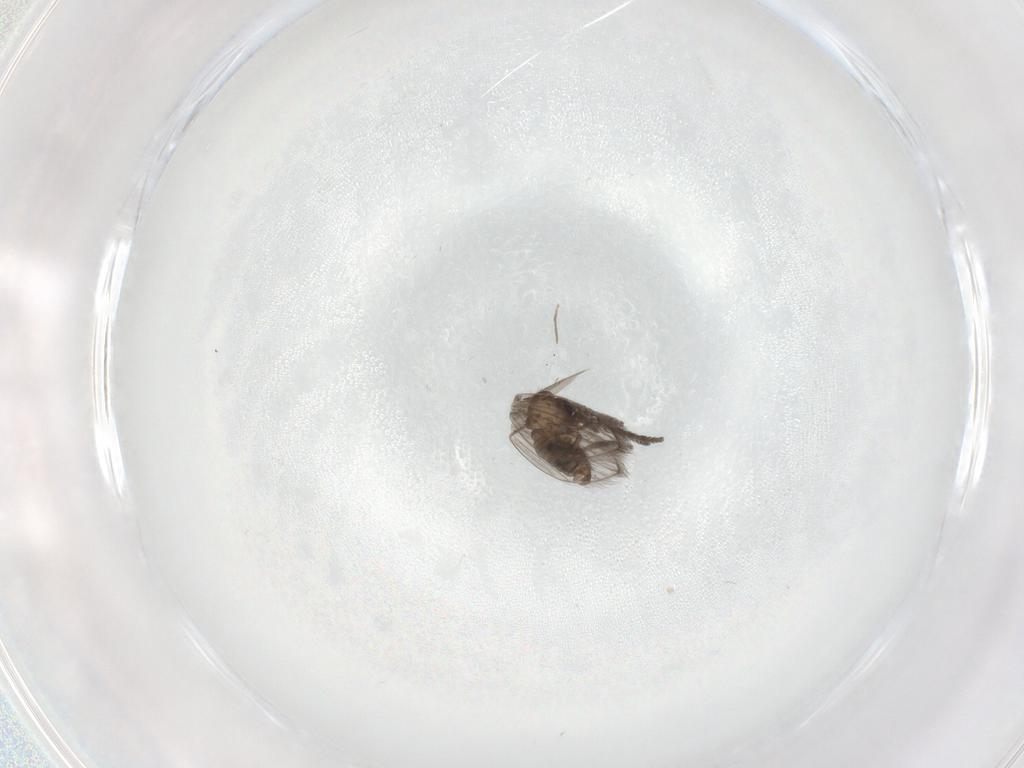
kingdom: Animalia
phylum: Arthropoda
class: Insecta
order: Diptera
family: Psychodidae
